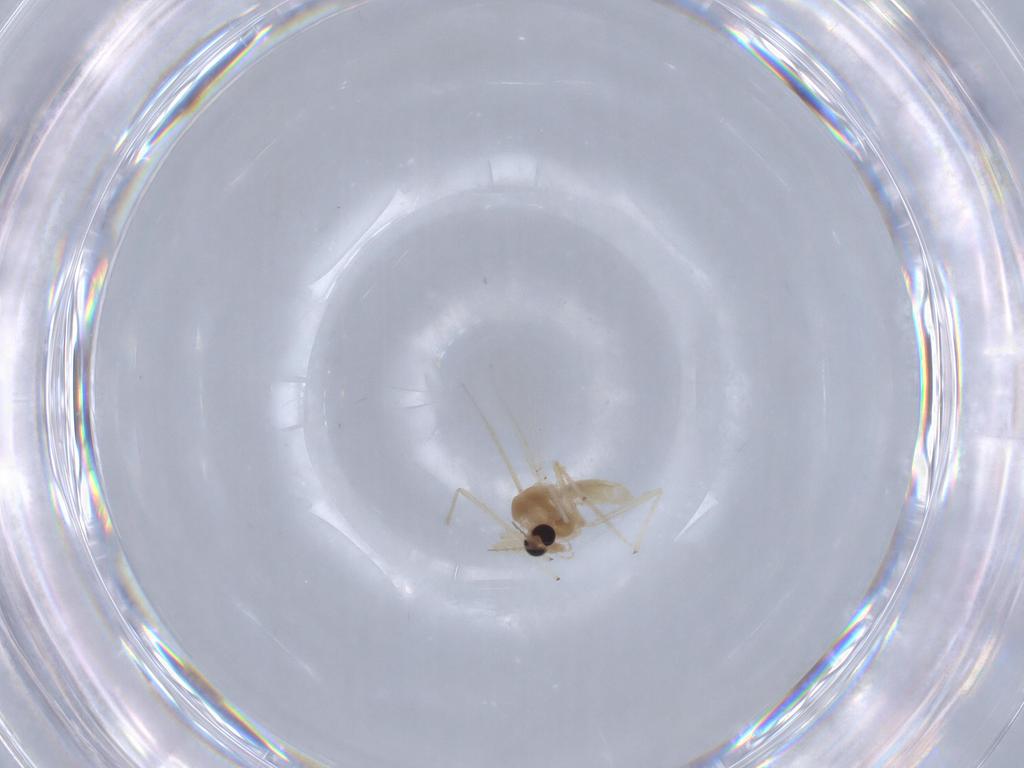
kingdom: Animalia
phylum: Arthropoda
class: Insecta
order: Diptera
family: Chironomidae
